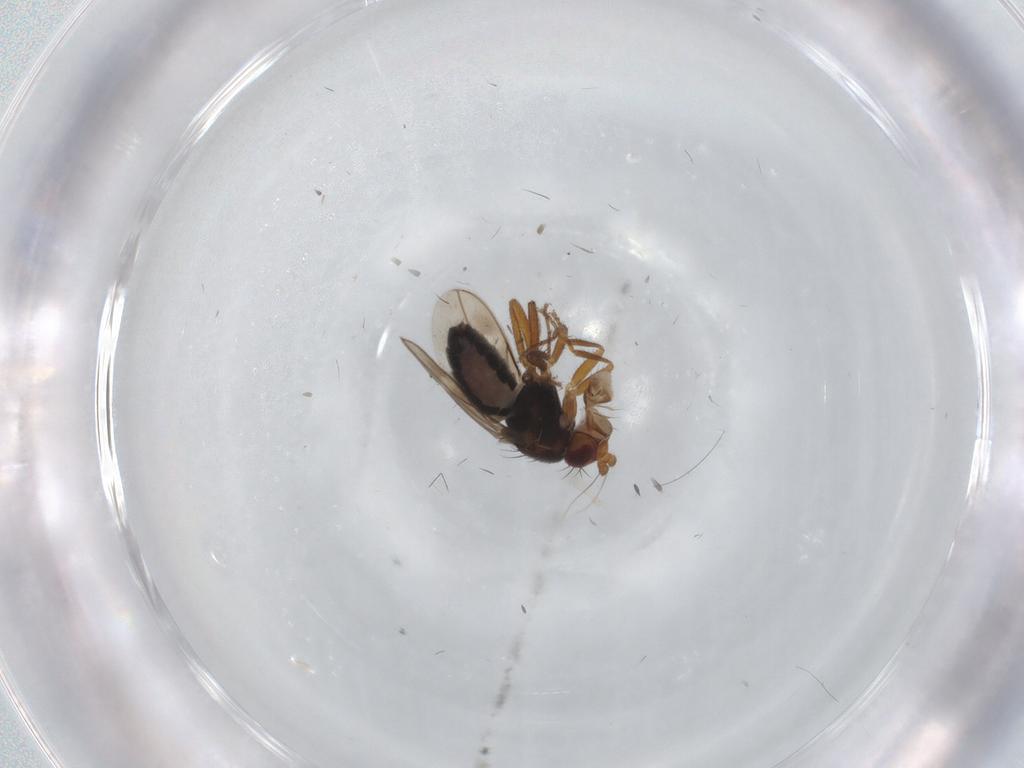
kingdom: Animalia
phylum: Arthropoda
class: Insecta
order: Diptera
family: Sphaeroceridae
